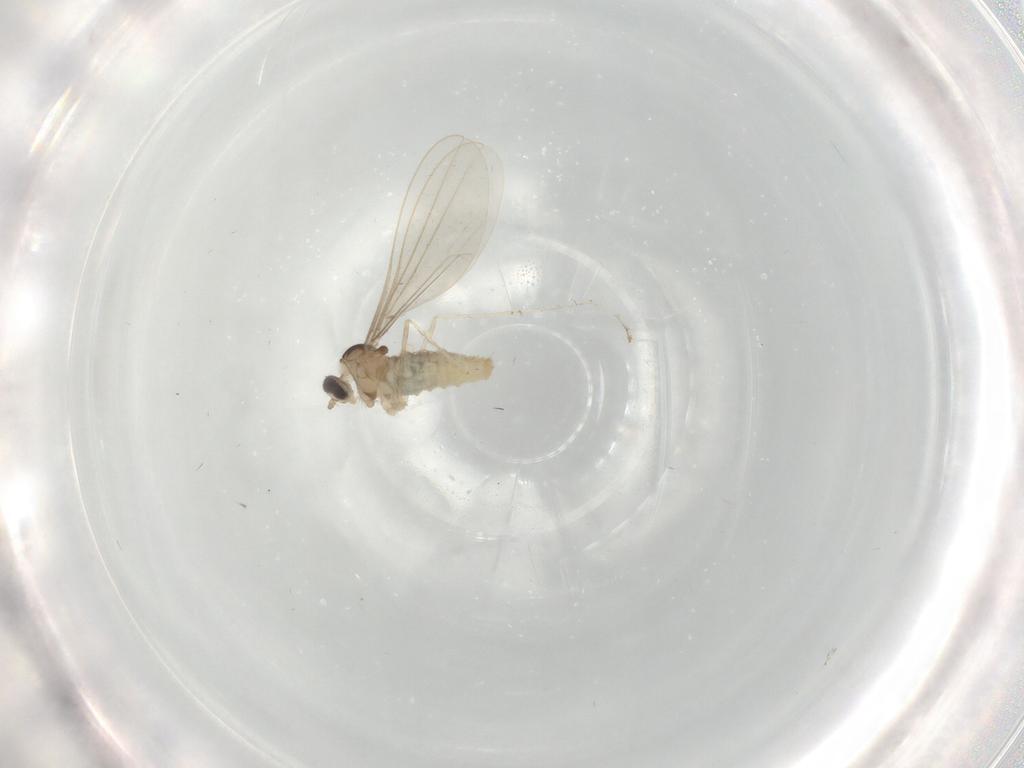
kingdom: Animalia
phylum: Arthropoda
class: Insecta
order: Diptera
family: Cecidomyiidae
